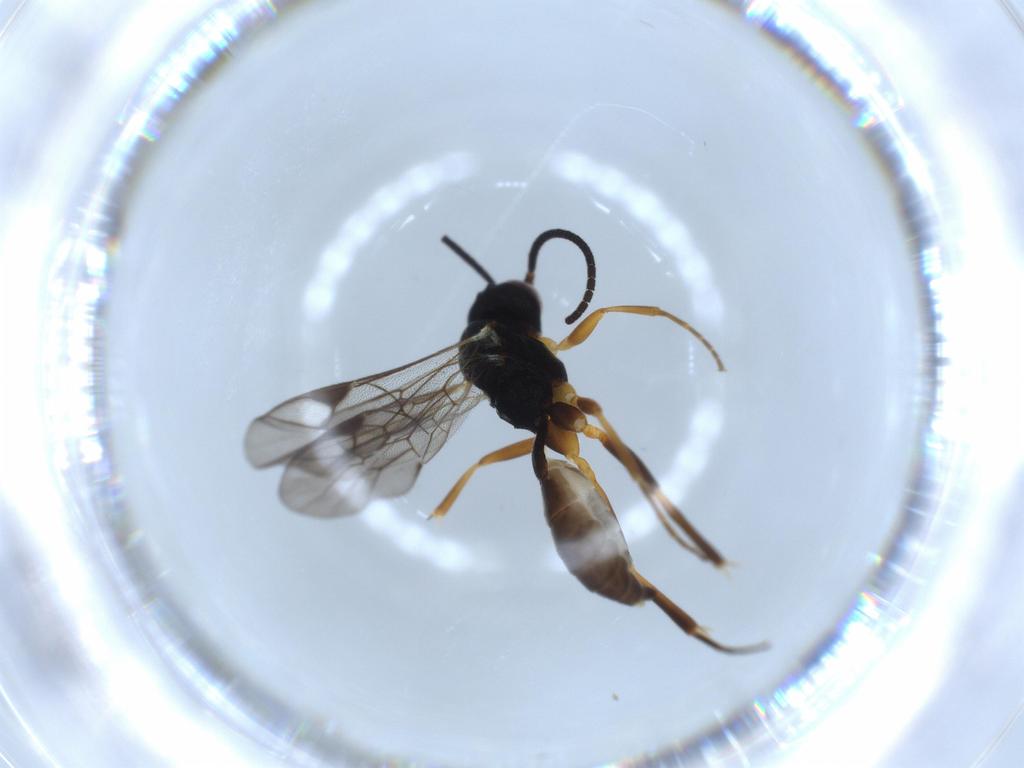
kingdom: Animalia
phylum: Arthropoda
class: Insecta
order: Hymenoptera
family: Ichneumonidae
